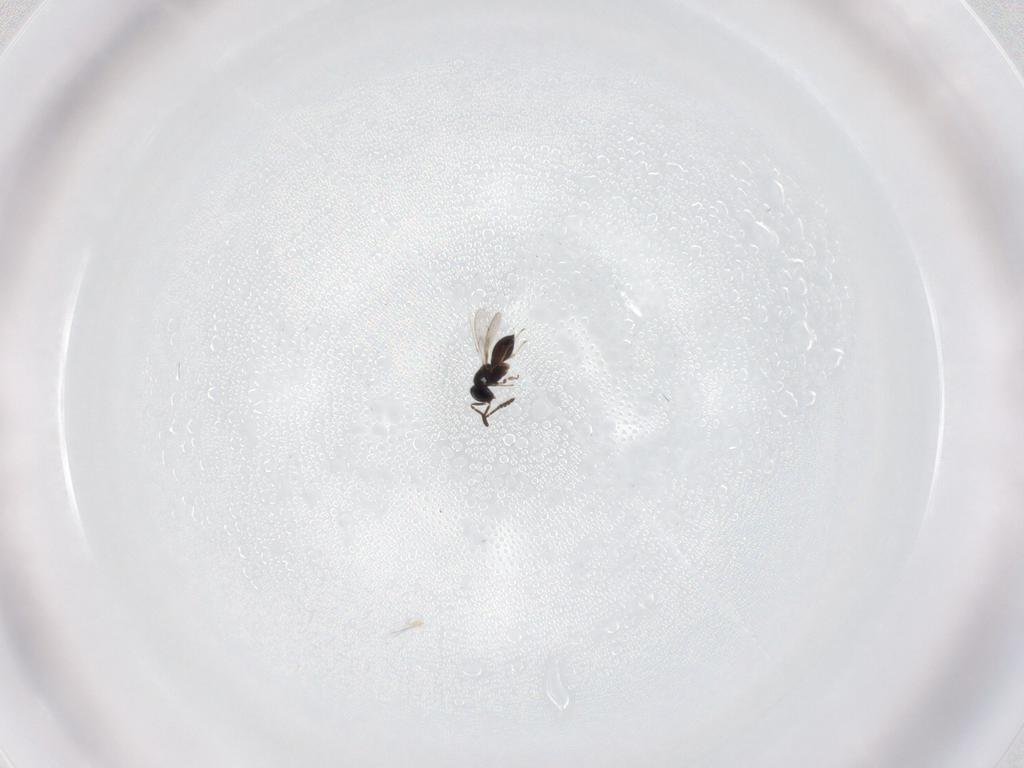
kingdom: Animalia
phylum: Arthropoda
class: Insecta
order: Hymenoptera
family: Scelionidae
